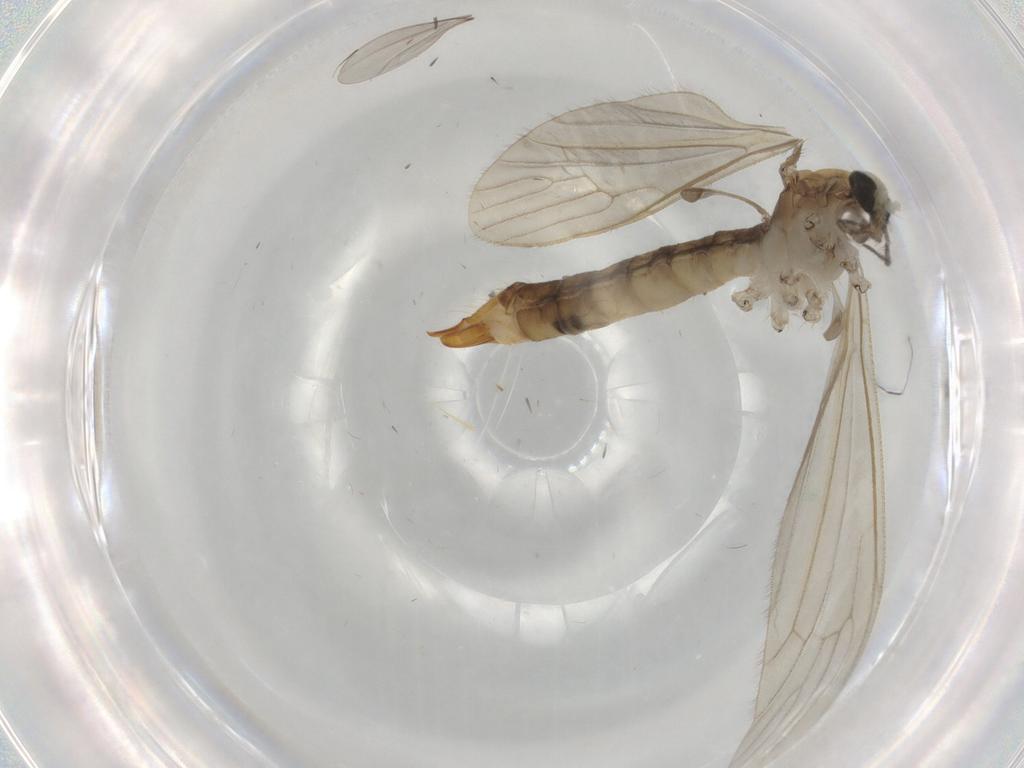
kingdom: Animalia
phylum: Arthropoda
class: Insecta
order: Diptera
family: Limoniidae
